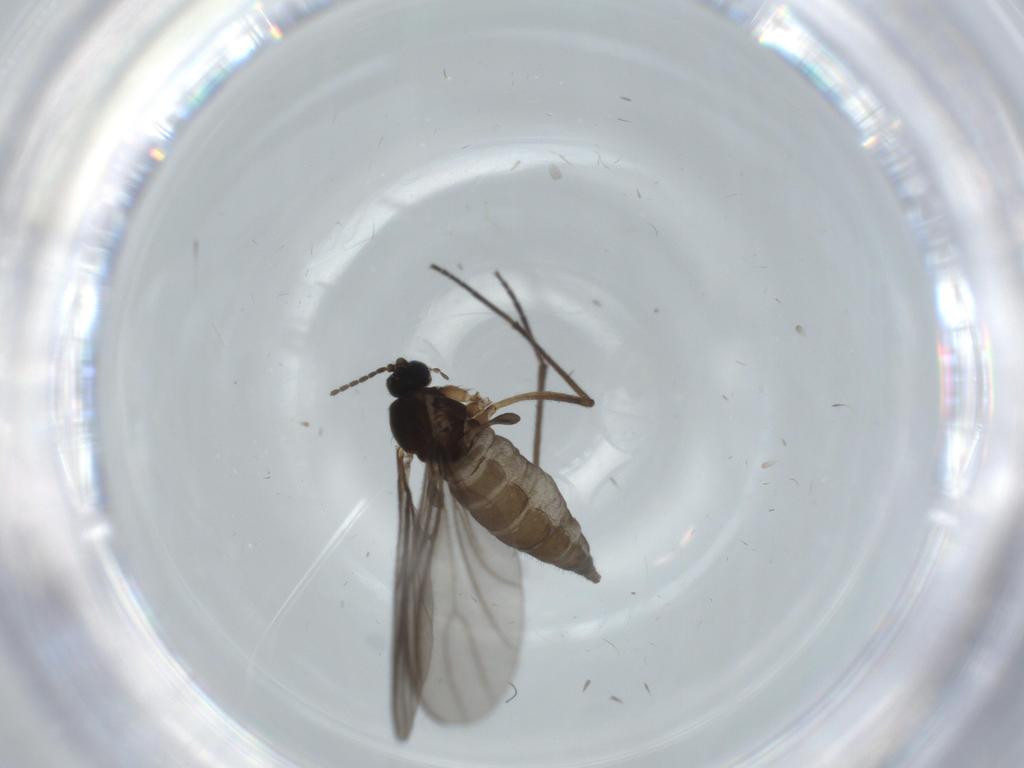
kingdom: Animalia
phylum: Arthropoda
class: Insecta
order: Diptera
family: Sciaridae
